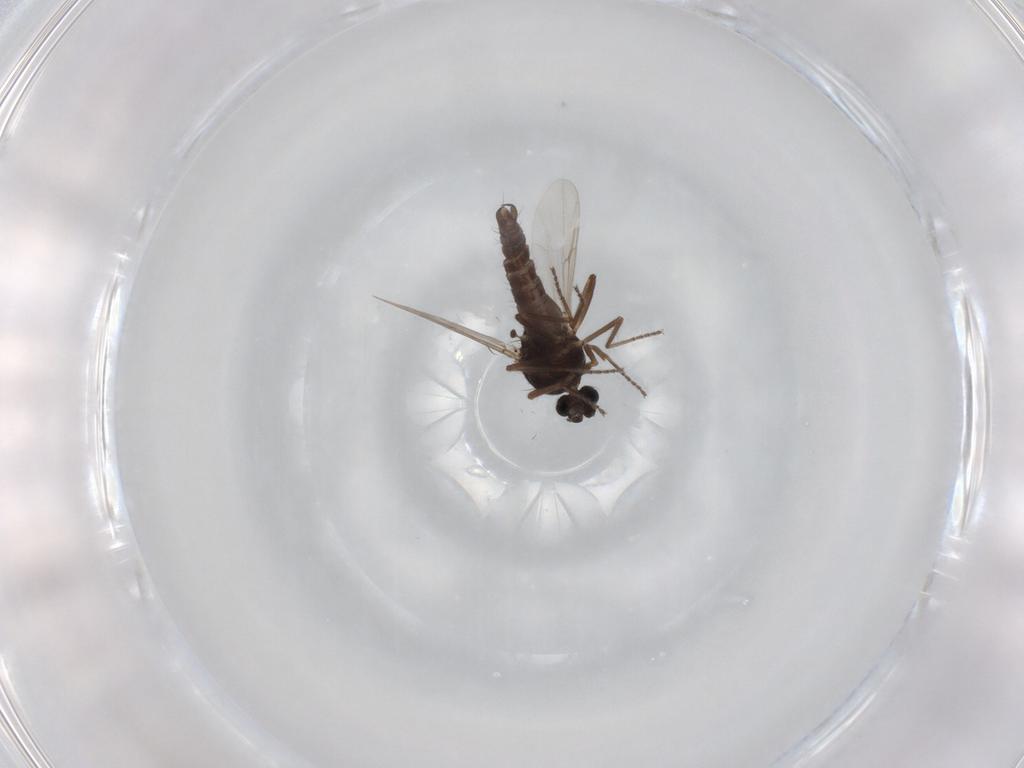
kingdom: Animalia
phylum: Arthropoda
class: Insecta
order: Diptera
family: Ceratopogonidae
